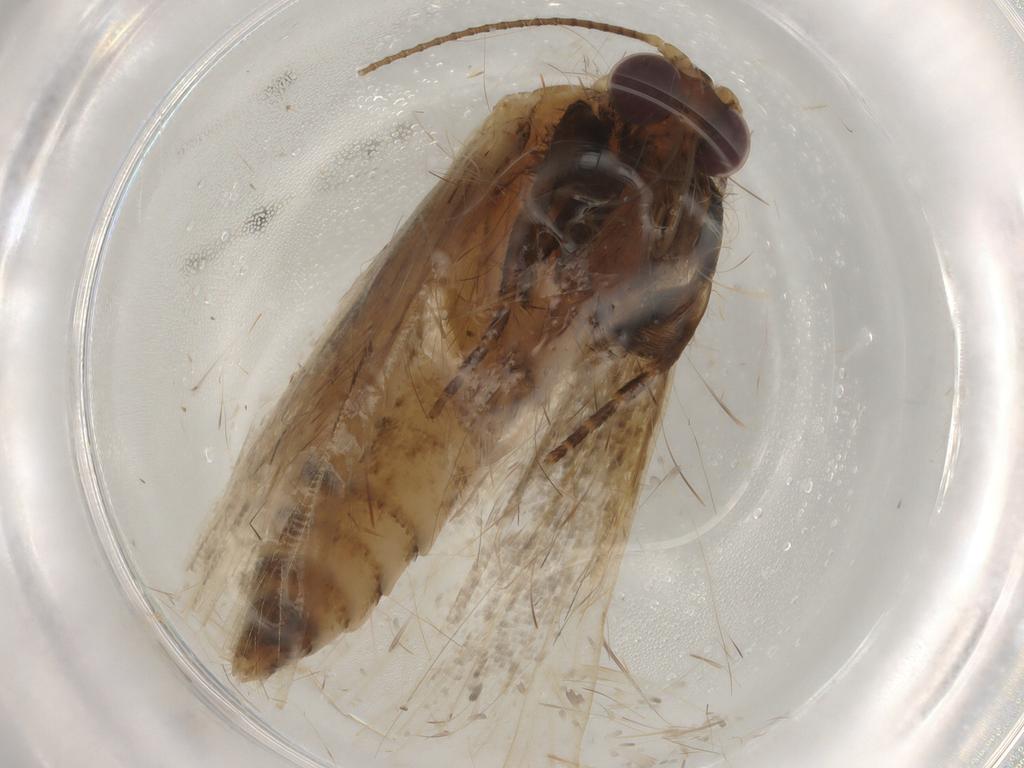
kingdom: Animalia
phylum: Arthropoda
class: Insecta
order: Lepidoptera
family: Erebidae
